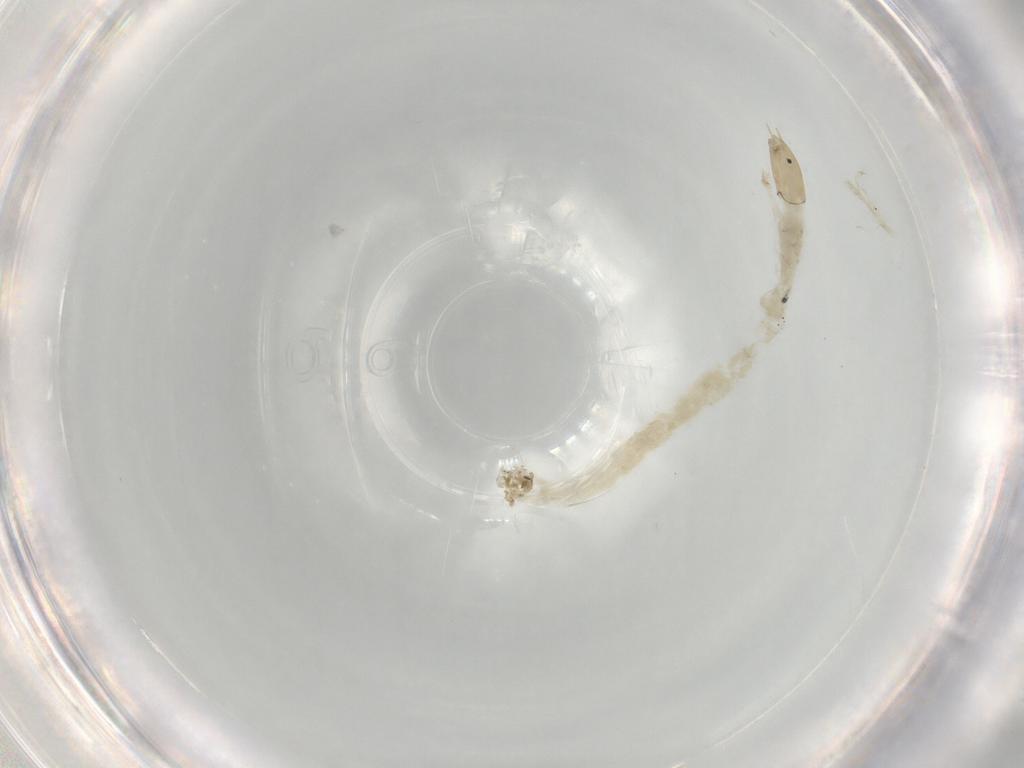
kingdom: Animalia
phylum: Arthropoda
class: Insecta
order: Diptera
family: Chironomidae
